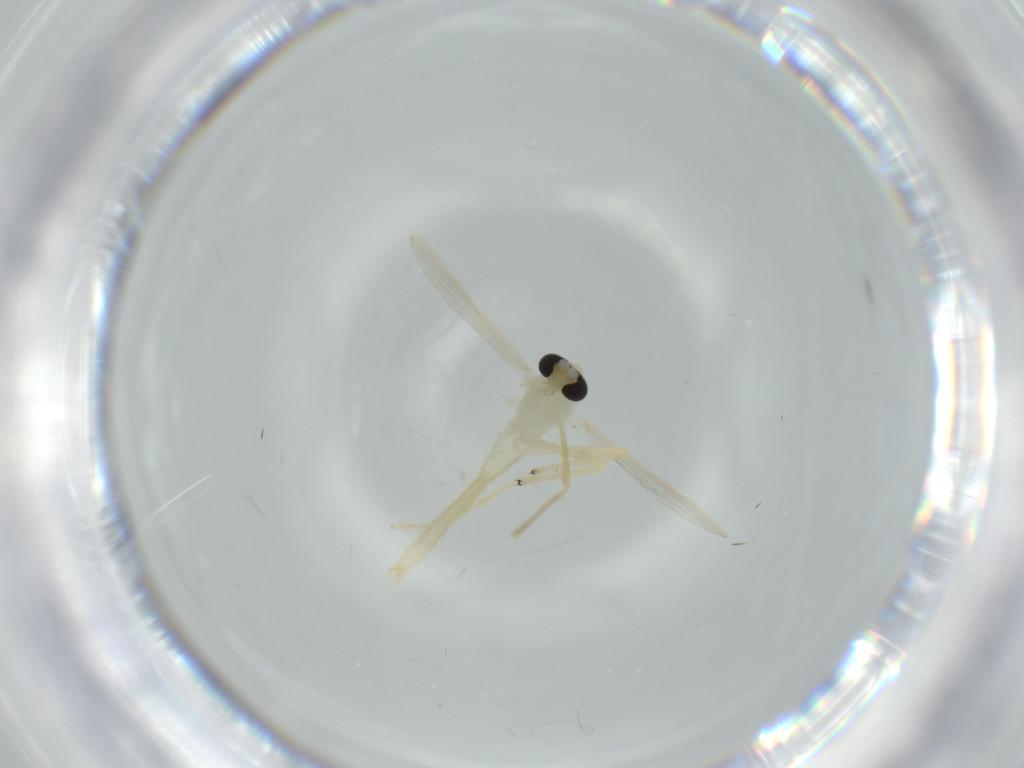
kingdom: Animalia
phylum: Arthropoda
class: Insecta
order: Diptera
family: Chironomidae
